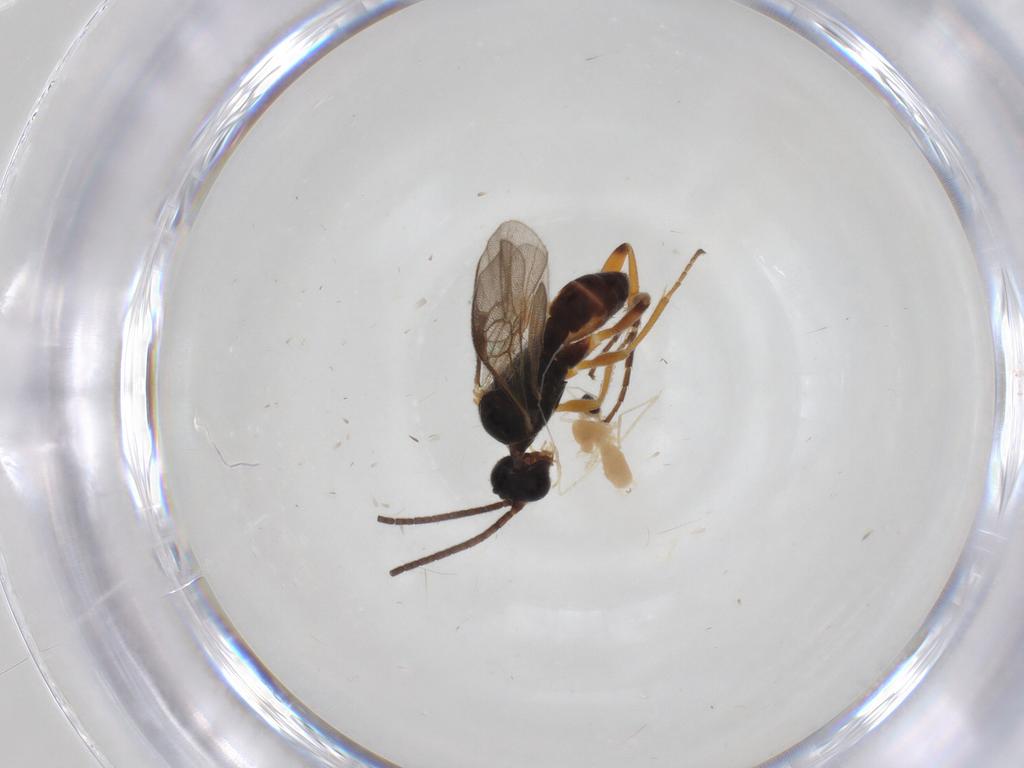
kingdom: Animalia
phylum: Arthropoda
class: Insecta
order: Diptera
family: Cecidomyiidae
